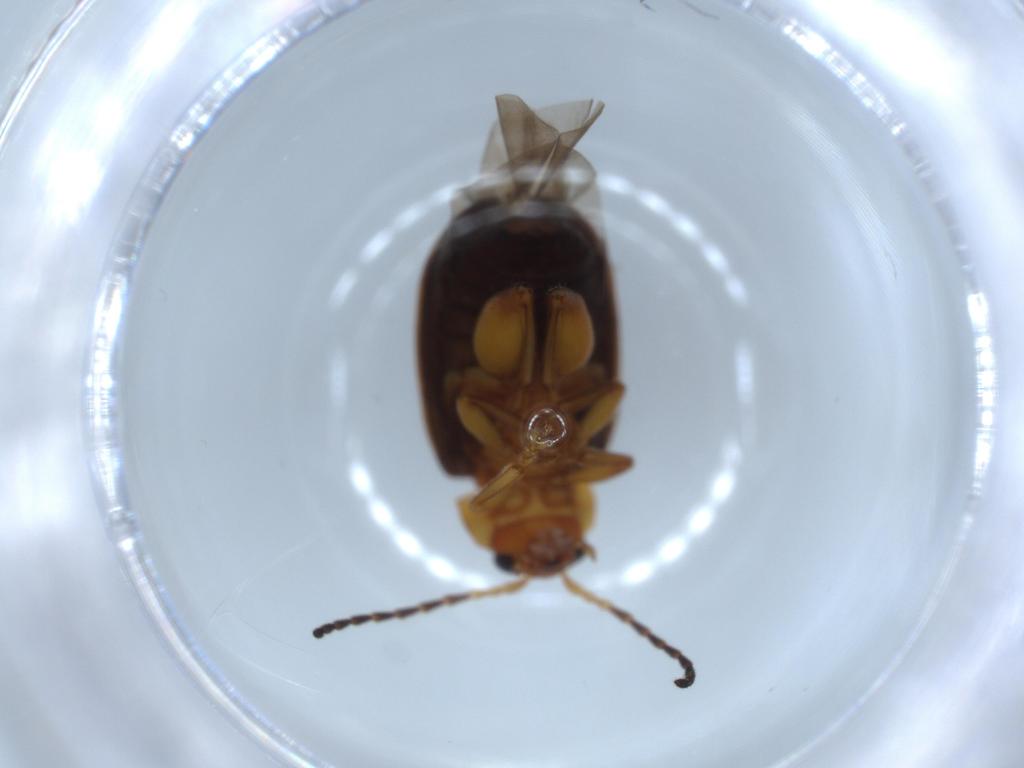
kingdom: Animalia
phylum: Arthropoda
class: Insecta
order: Coleoptera
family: Chrysomelidae
